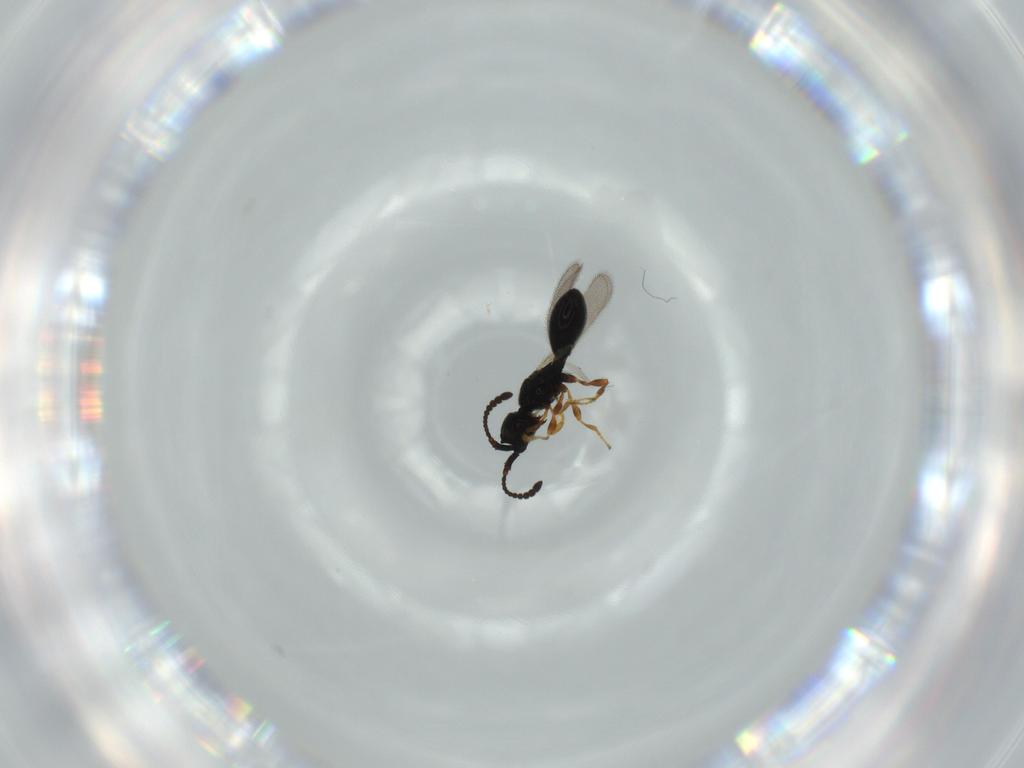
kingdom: Animalia
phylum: Arthropoda
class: Insecta
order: Hymenoptera
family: Diapriidae
